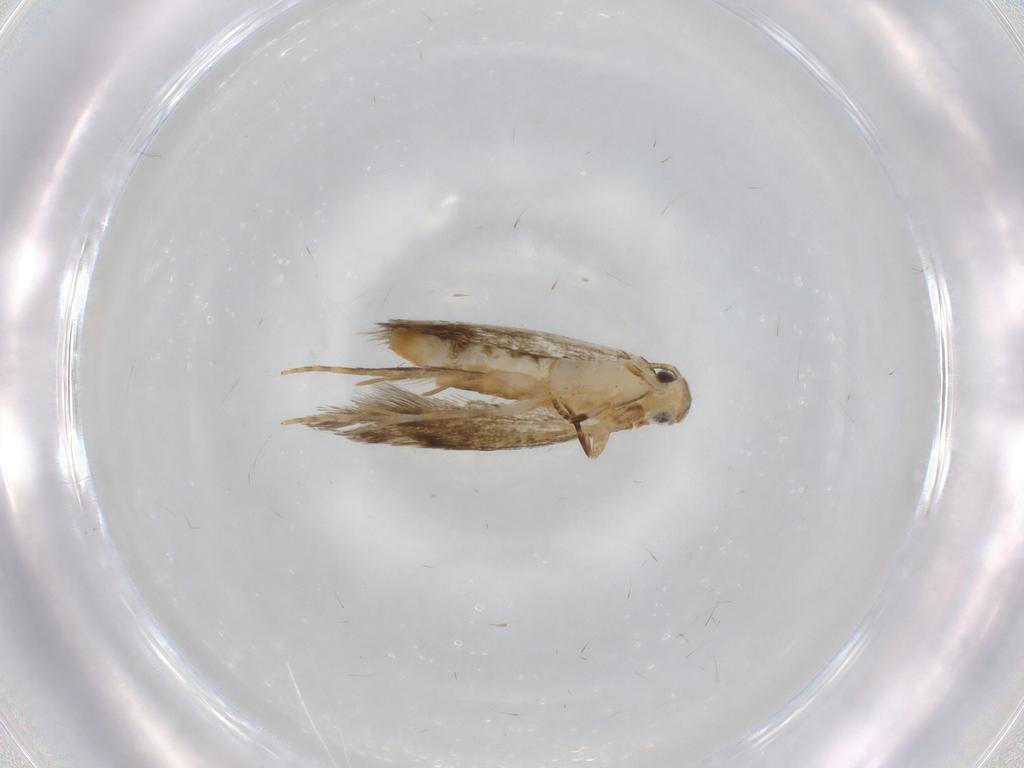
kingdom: Animalia
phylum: Arthropoda
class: Insecta
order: Lepidoptera
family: Tineidae
